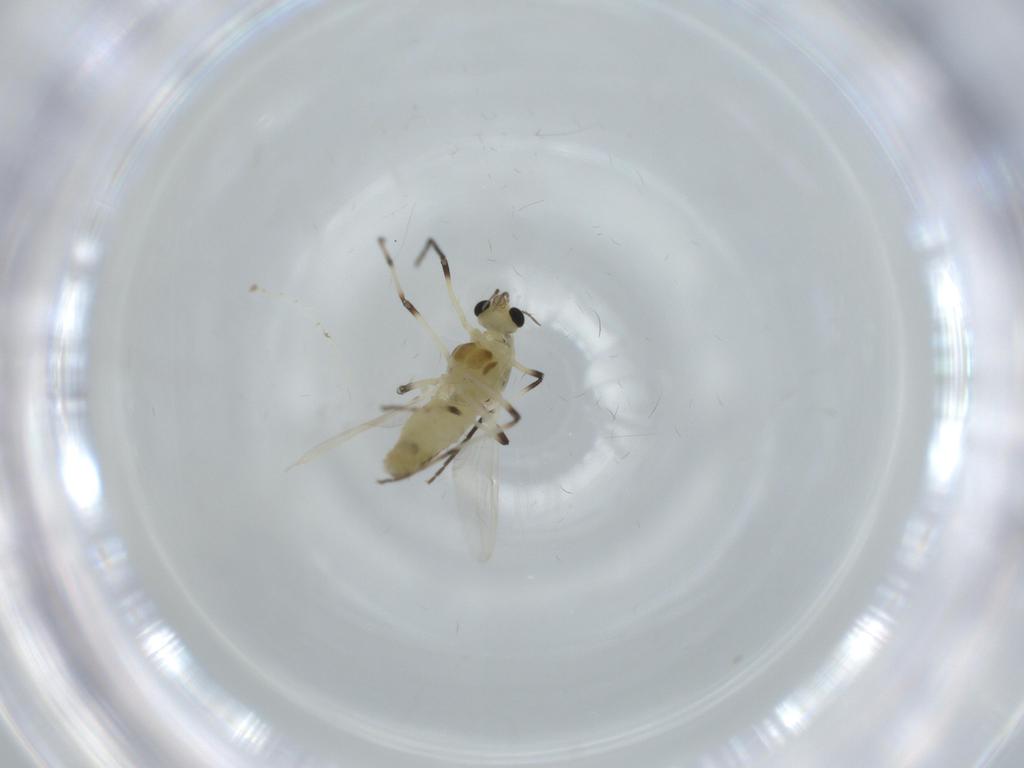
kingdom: Animalia
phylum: Arthropoda
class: Insecta
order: Diptera
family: Chironomidae
